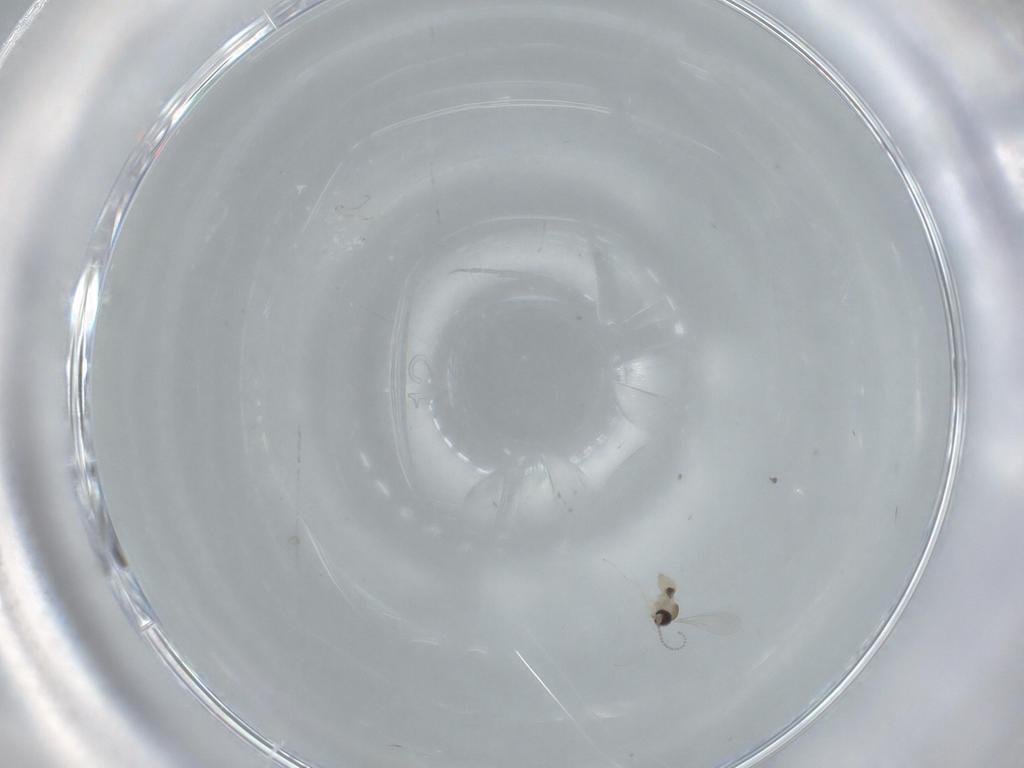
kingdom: Animalia
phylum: Arthropoda
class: Insecta
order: Diptera
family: Cecidomyiidae
